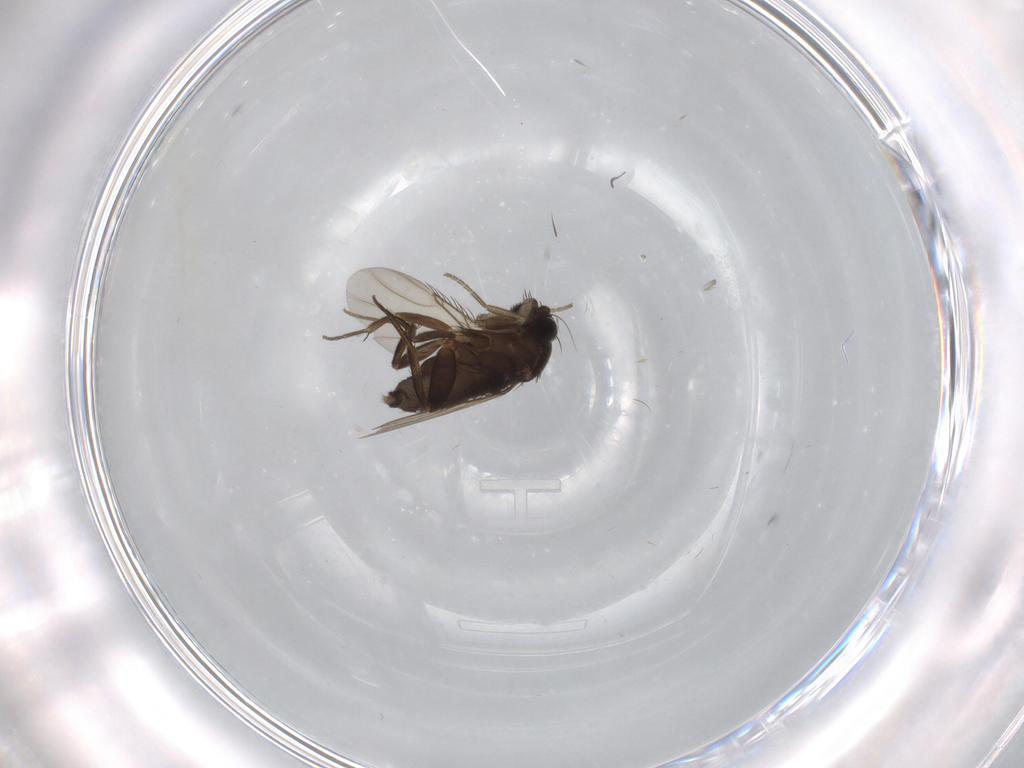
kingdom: Animalia
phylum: Arthropoda
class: Insecta
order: Diptera
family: Phoridae
